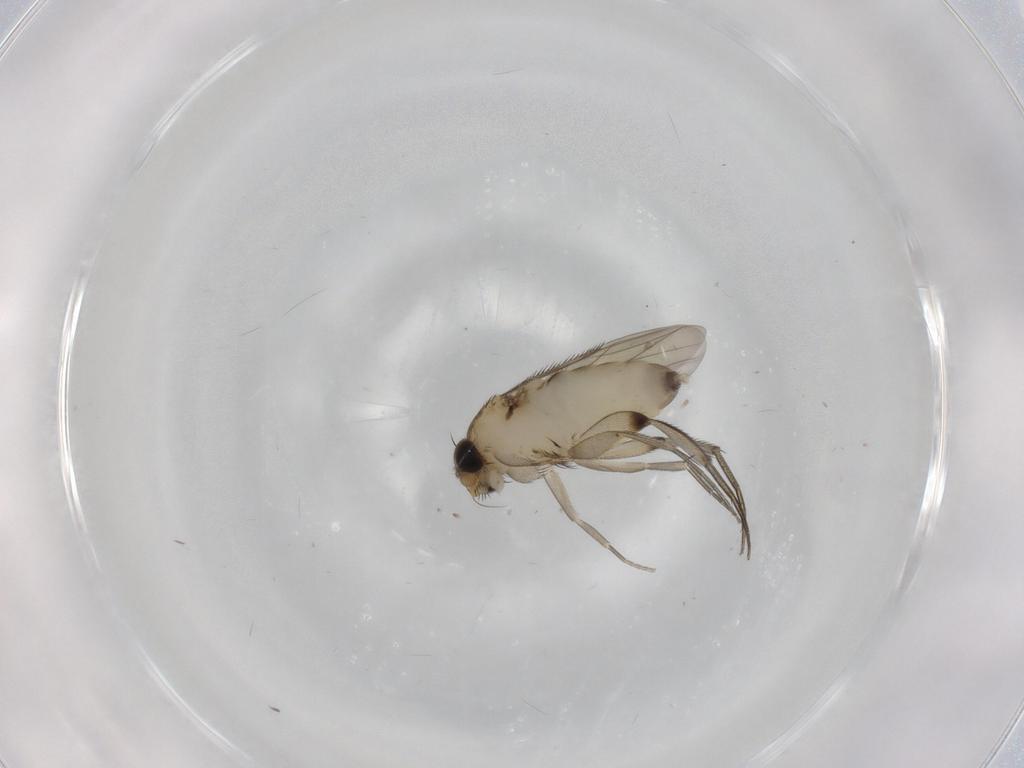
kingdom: Animalia
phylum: Arthropoda
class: Insecta
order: Diptera
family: Phoridae
